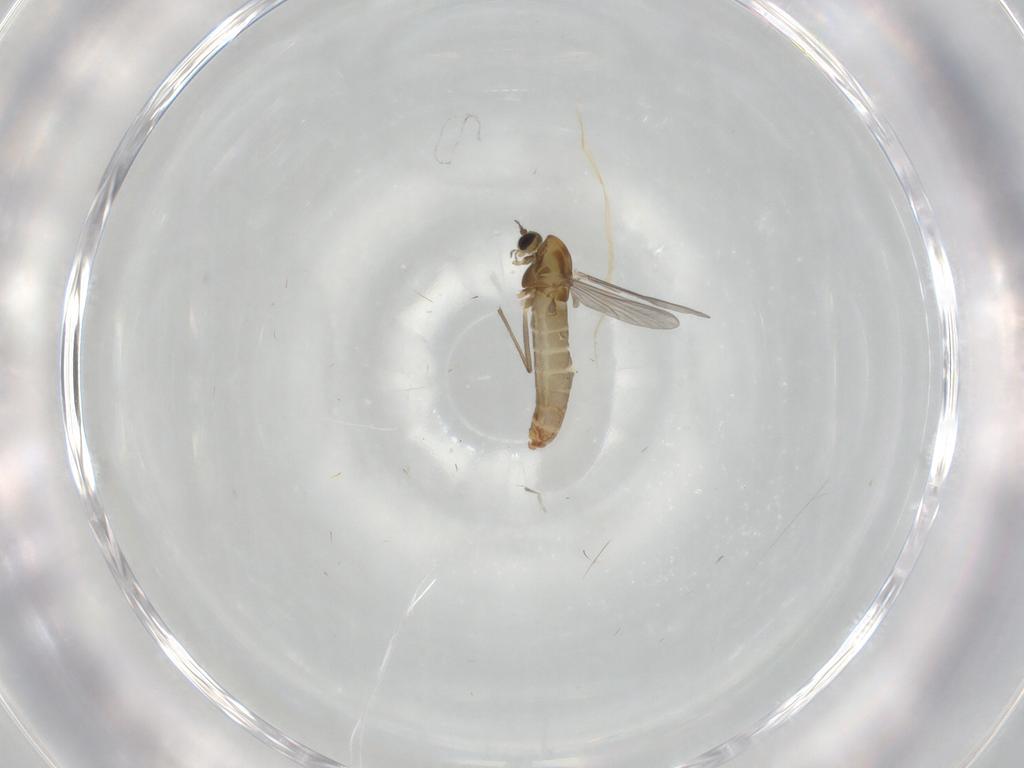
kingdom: Animalia
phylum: Arthropoda
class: Insecta
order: Diptera
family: Chironomidae
